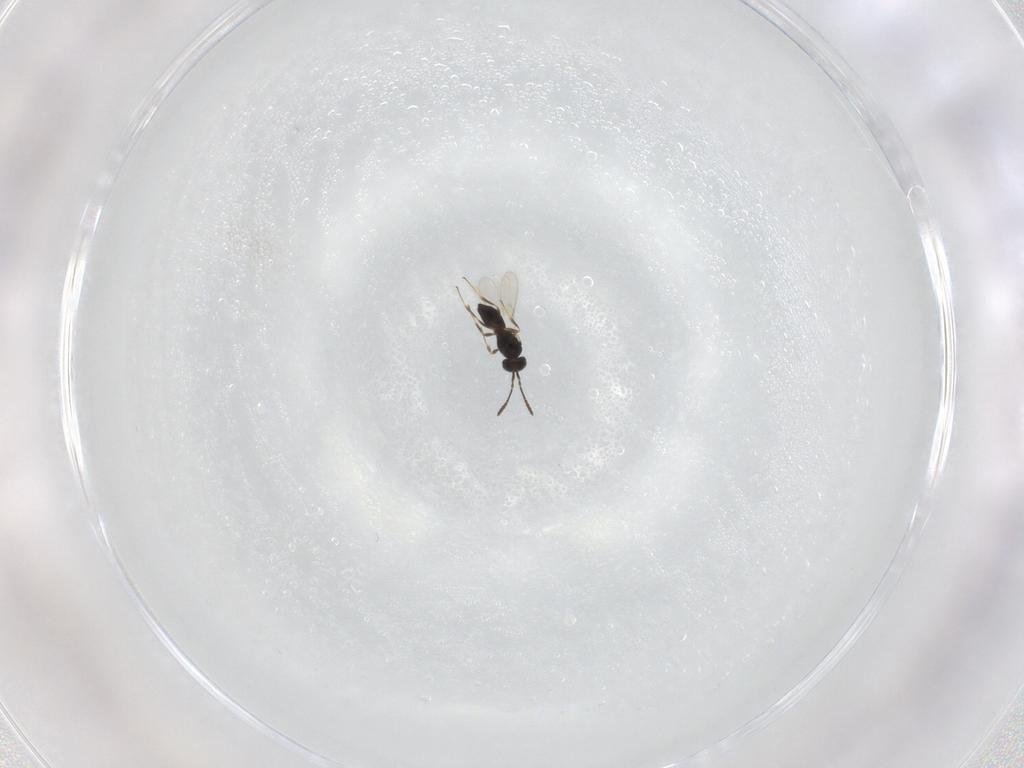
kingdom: Animalia
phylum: Arthropoda
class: Insecta
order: Hymenoptera
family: Scelionidae
